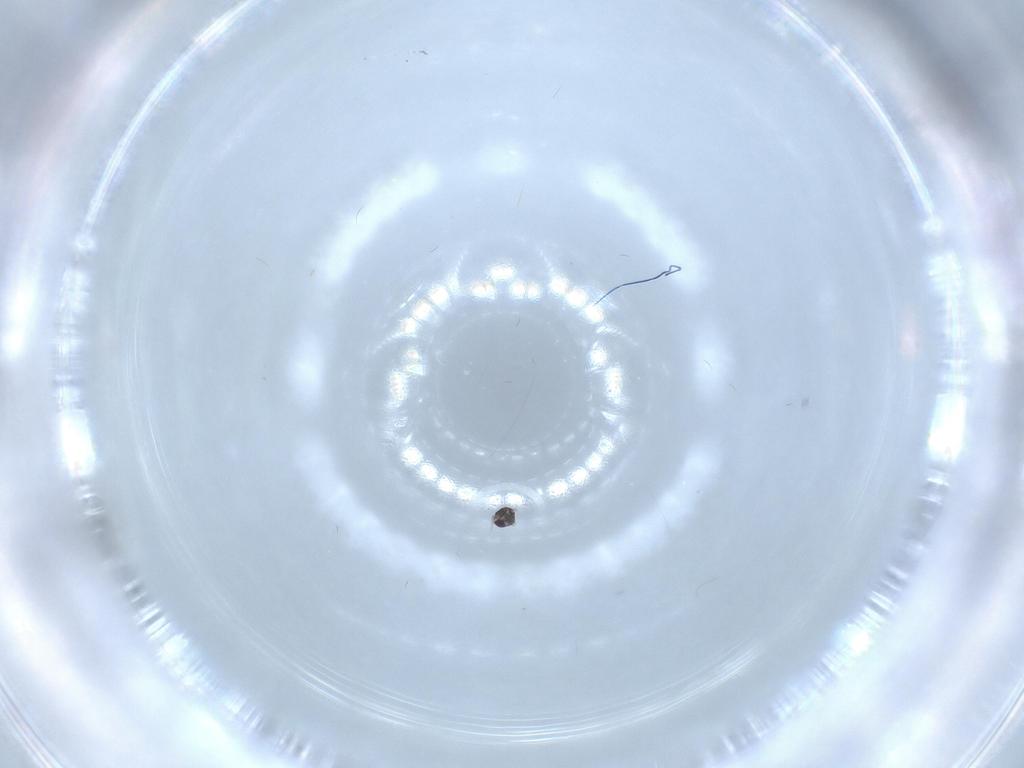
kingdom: Animalia
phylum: Arthropoda
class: Insecta
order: Hymenoptera
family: Mymaridae
